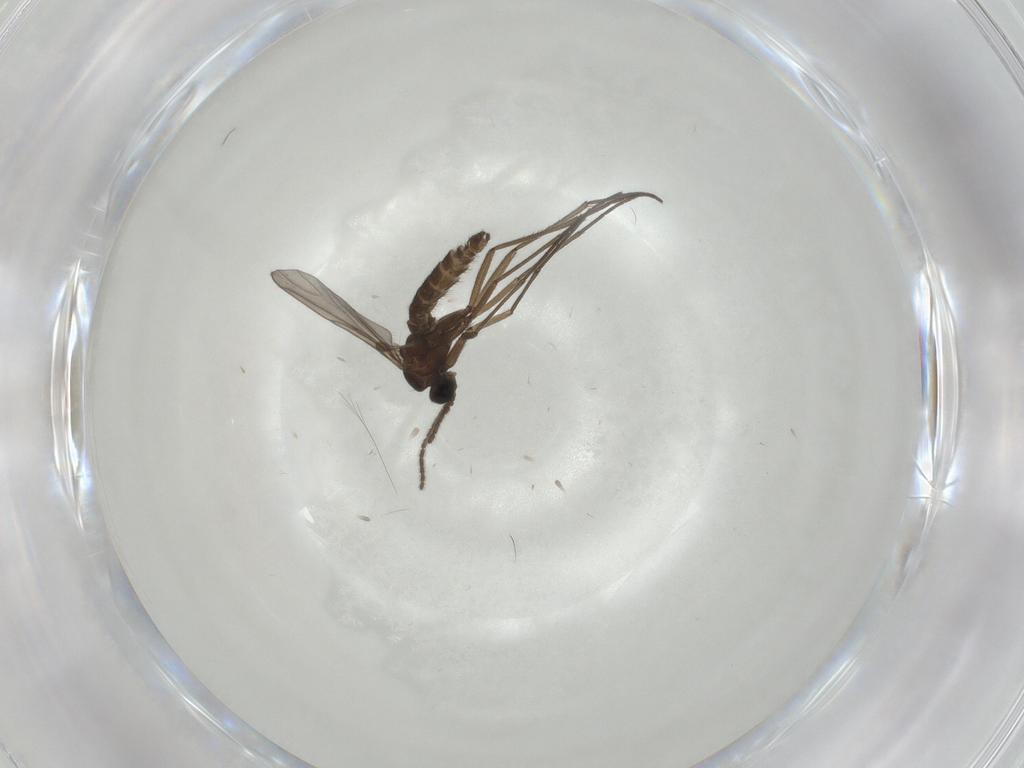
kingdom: Animalia
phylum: Arthropoda
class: Insecta
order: Diptera
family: Sciaridae
